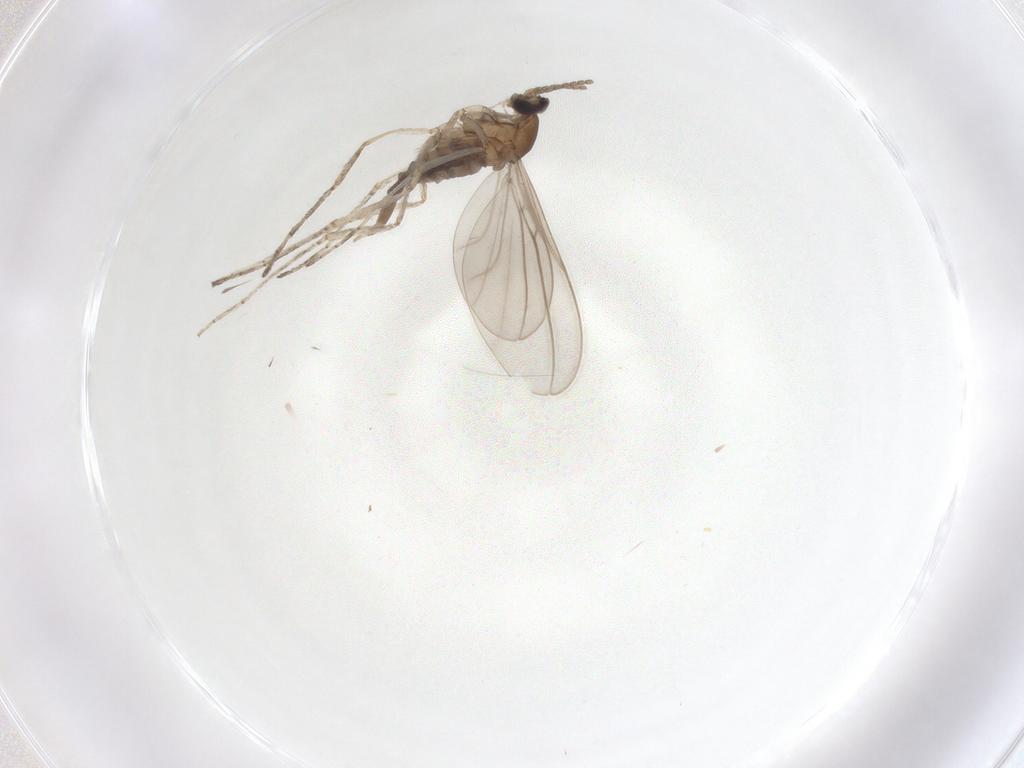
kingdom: Animalia
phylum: Arthropoda
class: Insecta
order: Diptera
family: Cecidomyiidae
